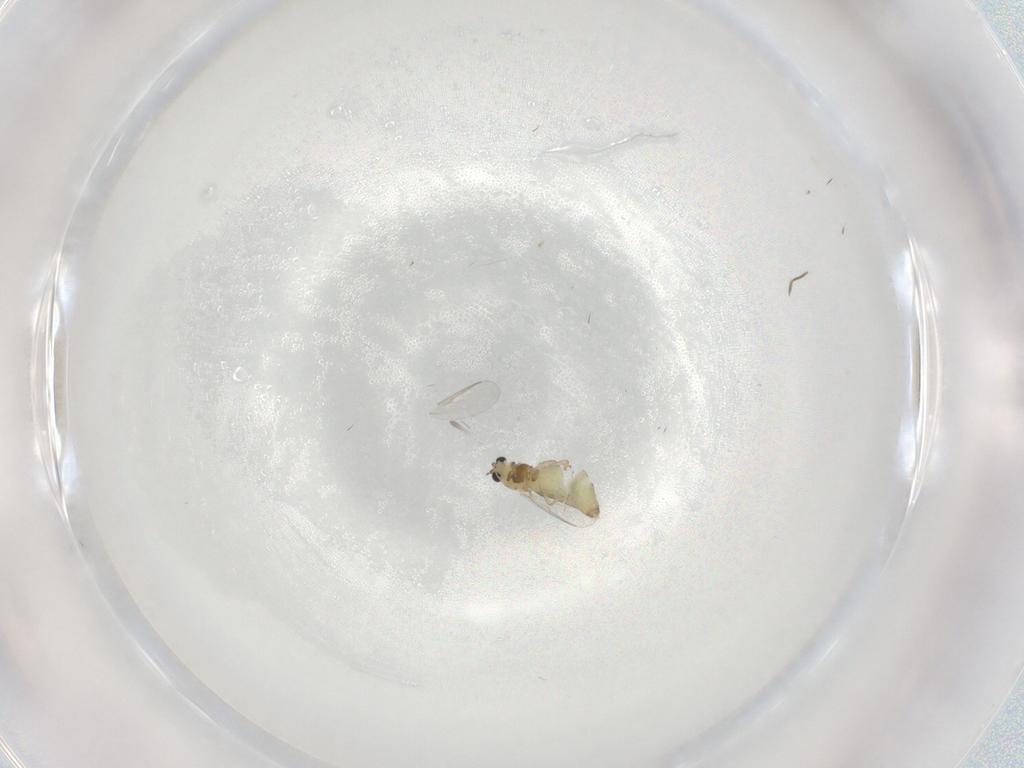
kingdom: Animalia
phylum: Arthropoda
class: Insecta
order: Diptera
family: Chironomidae
